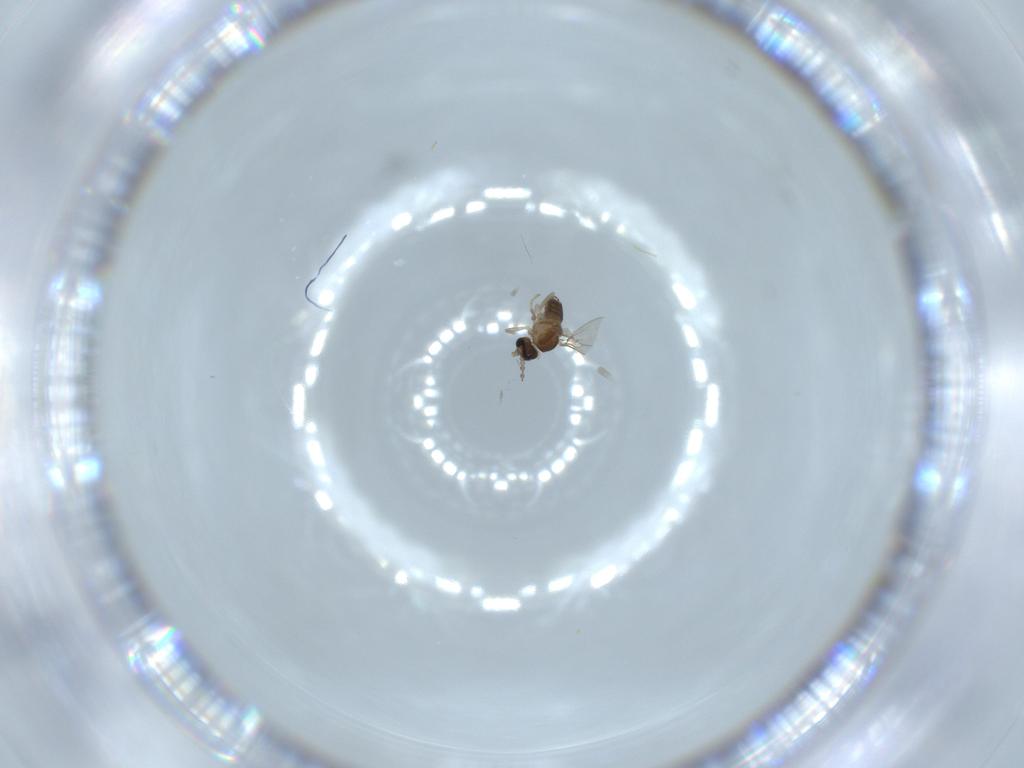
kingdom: Animalia
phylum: Arthropoda
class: Insecta
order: Diptera
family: Cecidomyiidae
